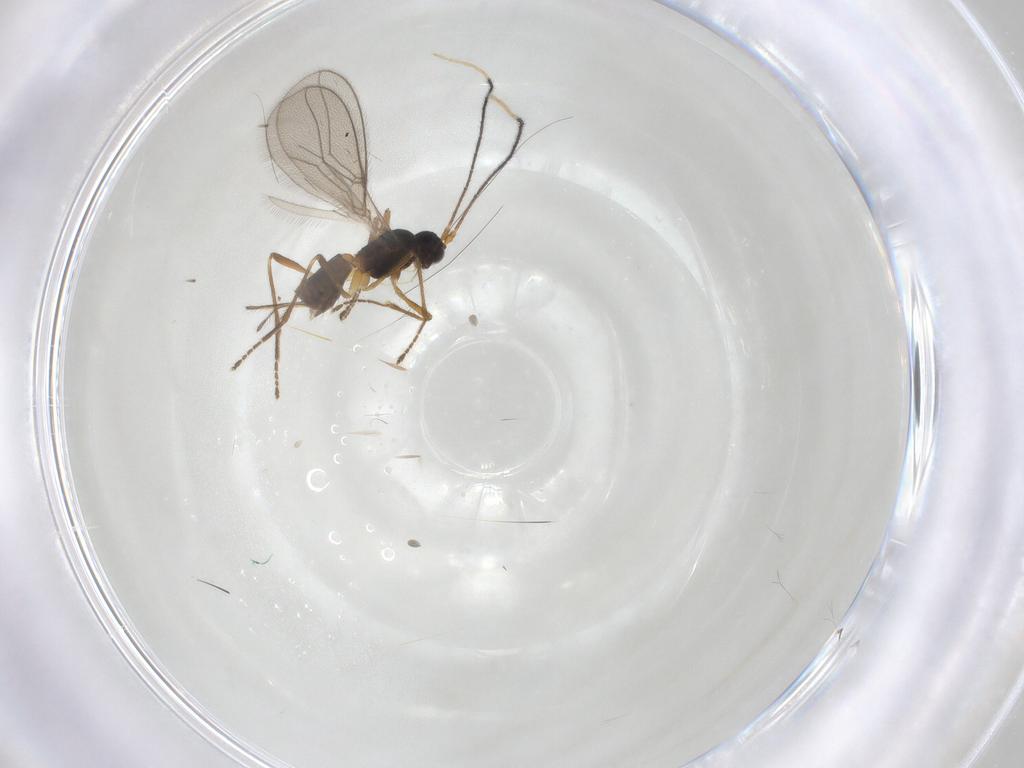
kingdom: Animalia
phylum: Arthropoda
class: Insecta
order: Hymenoptera
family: Braconidae
